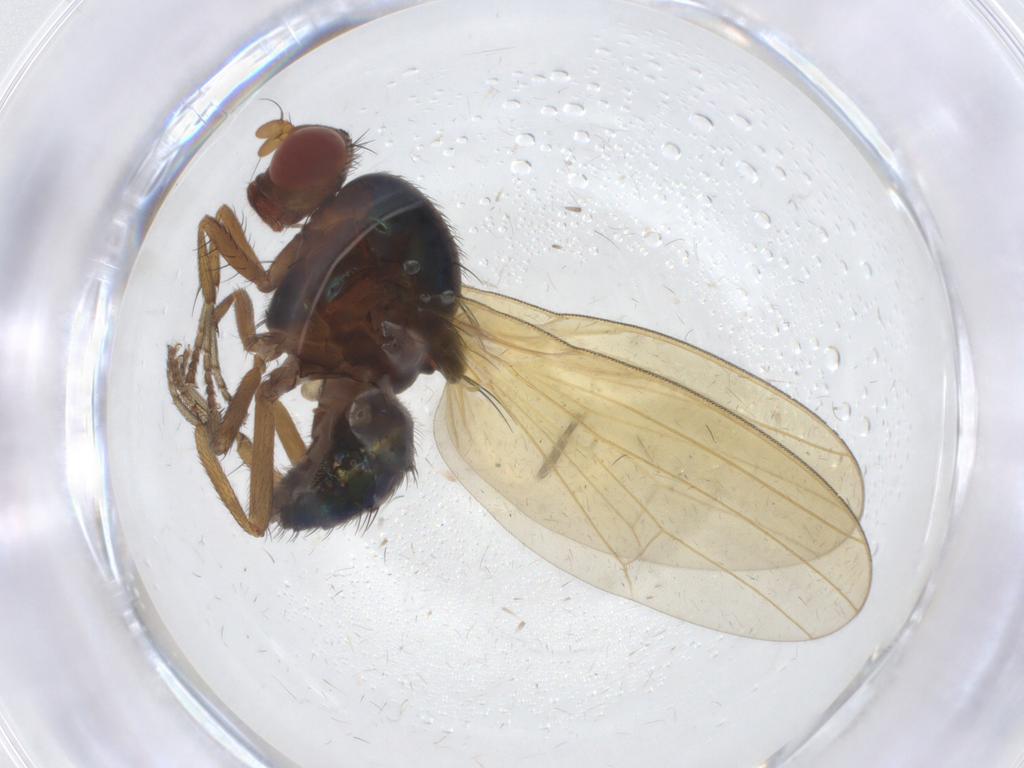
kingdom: Animalia
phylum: Arthropoda
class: Insecta
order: Diptera
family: Lauxaniidae
